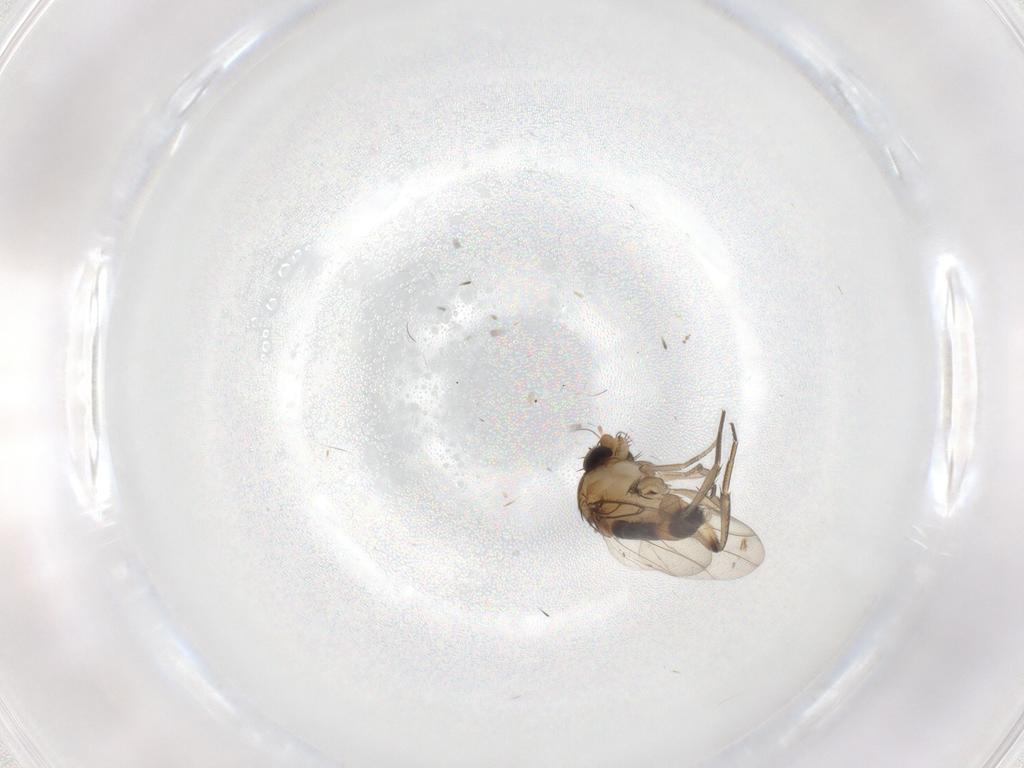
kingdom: Animalia
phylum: Arthropoda
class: Insecta
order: Diptera
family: Phoridae
